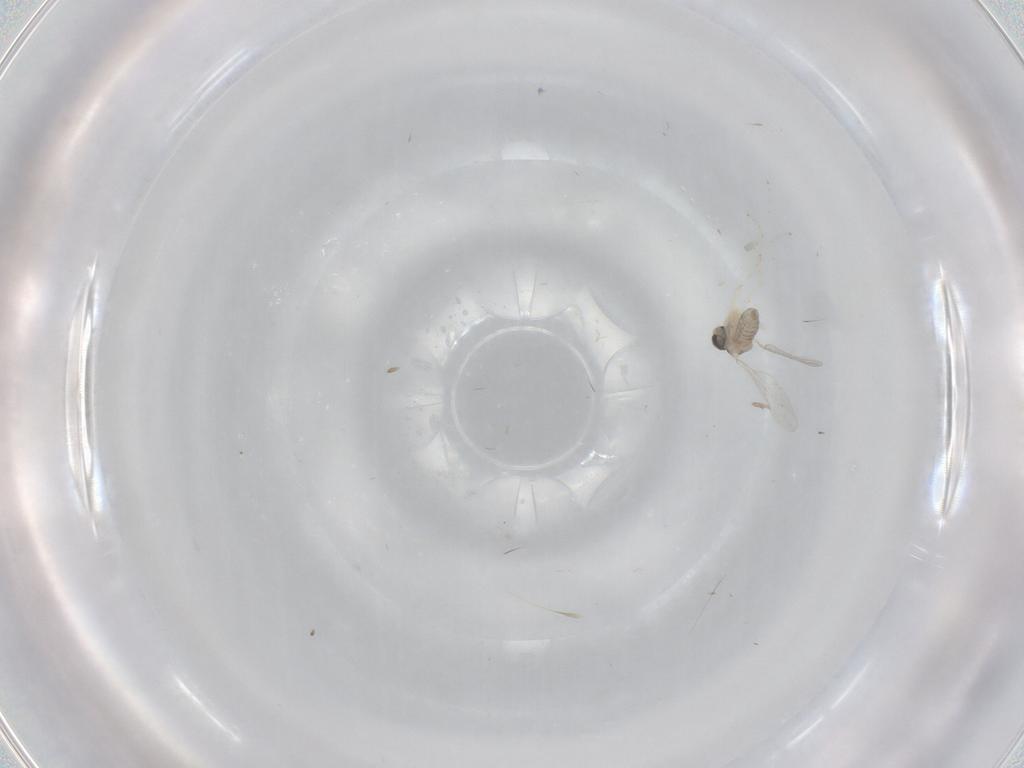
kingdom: Animalia
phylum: Arthropoda
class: Insecta
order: Diptera
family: Cecidomyiidae
